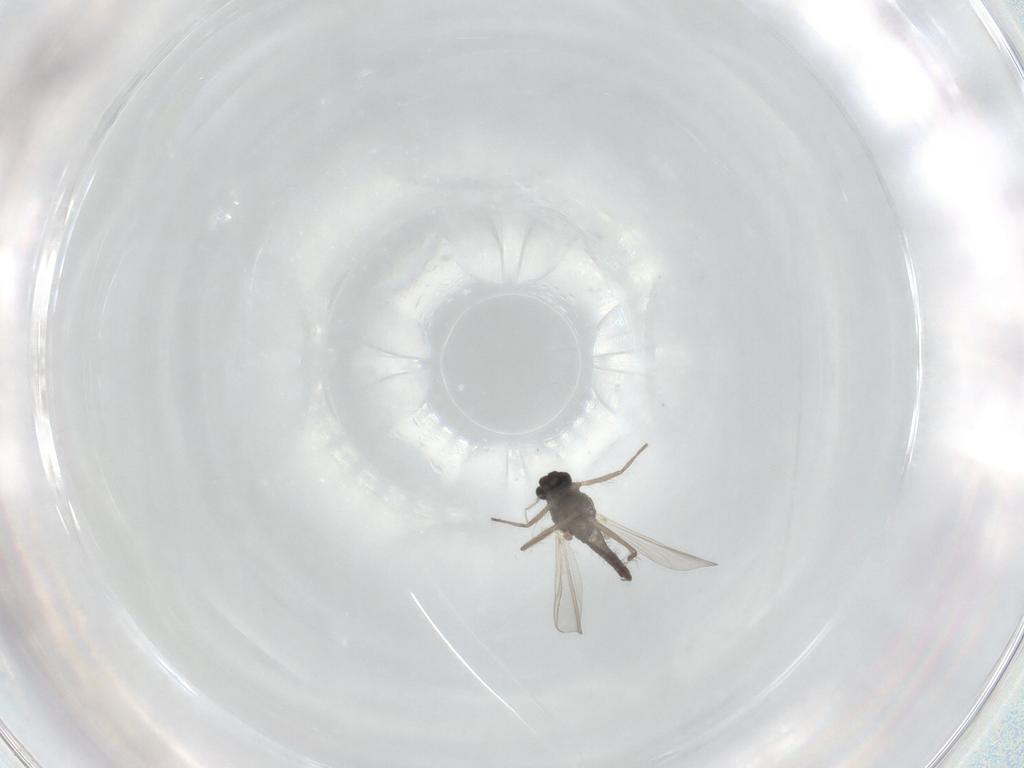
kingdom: Animalia
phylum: Arthropoda
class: Insecta
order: Diptera
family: Chironomidae
